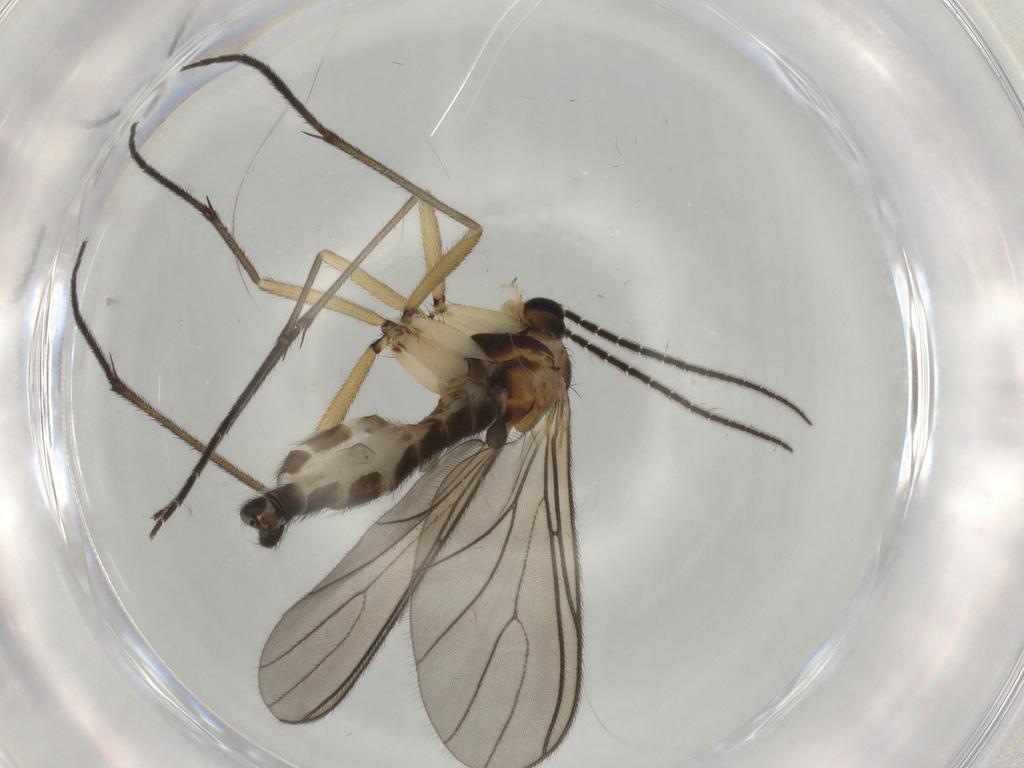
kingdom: Animalia
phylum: Arthropoda
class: Insecta
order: Diptera
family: Sciaridae
